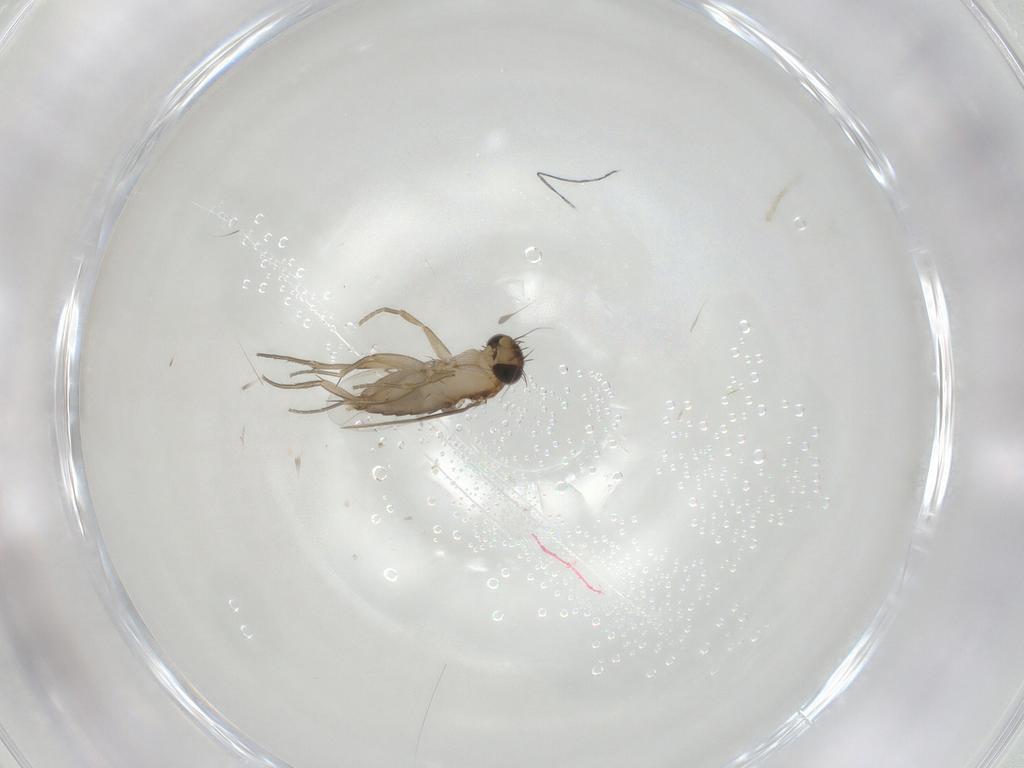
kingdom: Animalia
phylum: Arthropoda
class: Insecta
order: Diptera
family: Phoridae
